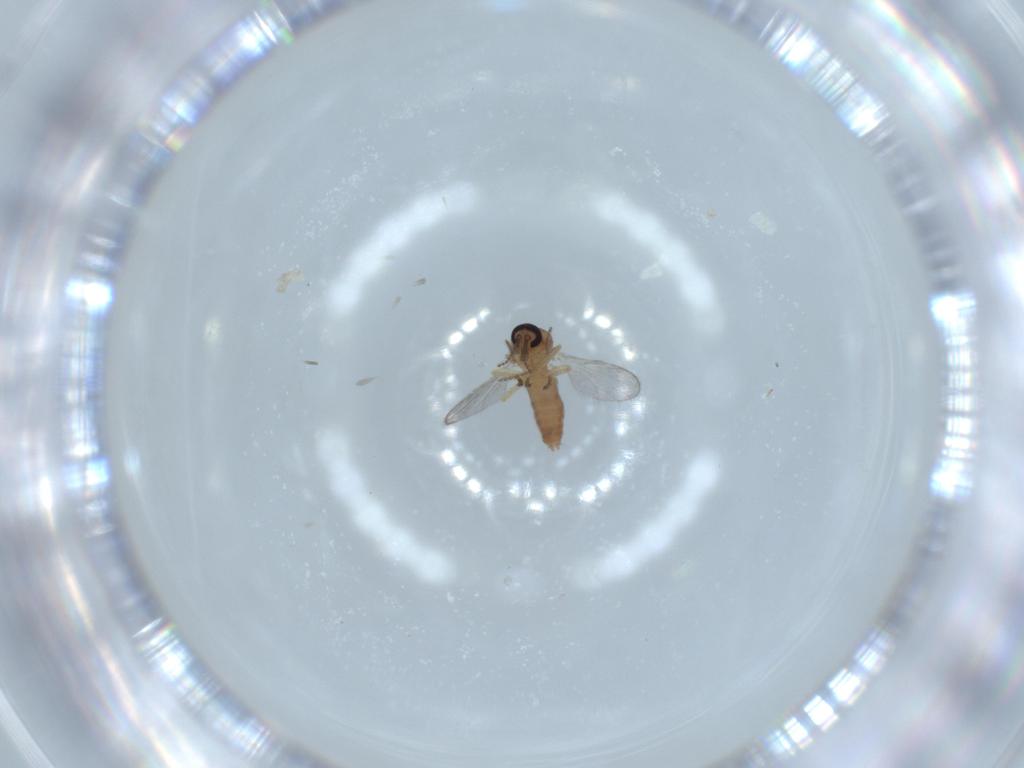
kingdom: Animalia
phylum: Arthropoda
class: Insecta
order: Diptera
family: Ceratopogonidae
